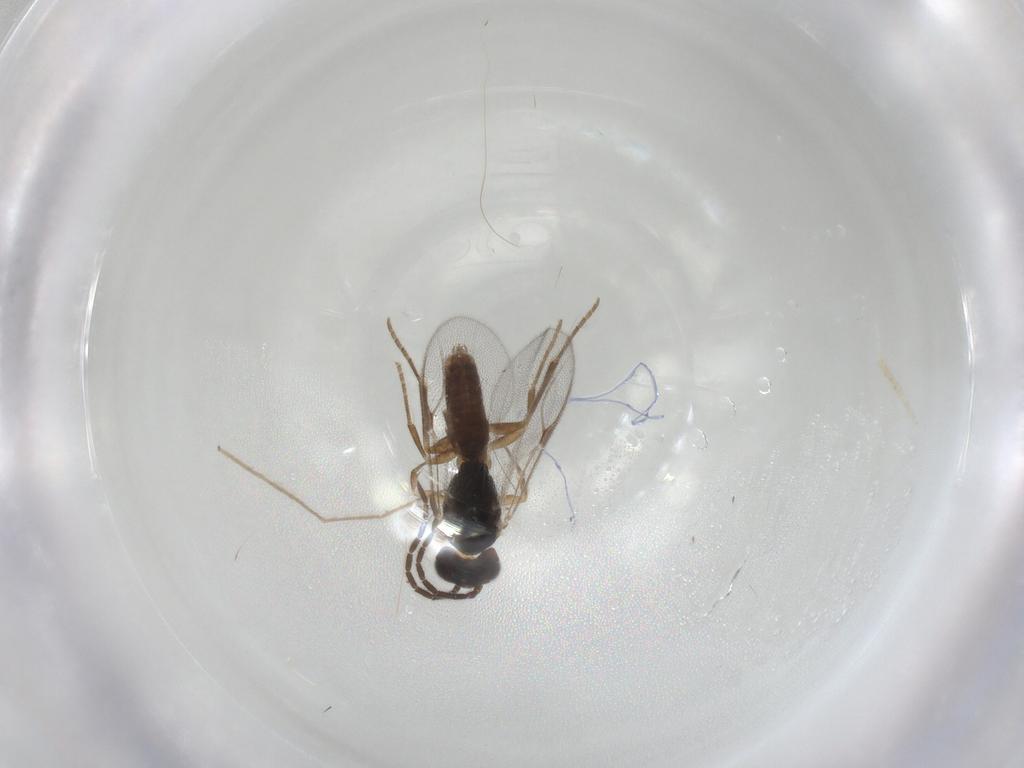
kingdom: Animalia
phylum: Arthropoda
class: Insecta
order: Hymenoptera
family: Dryinidae
